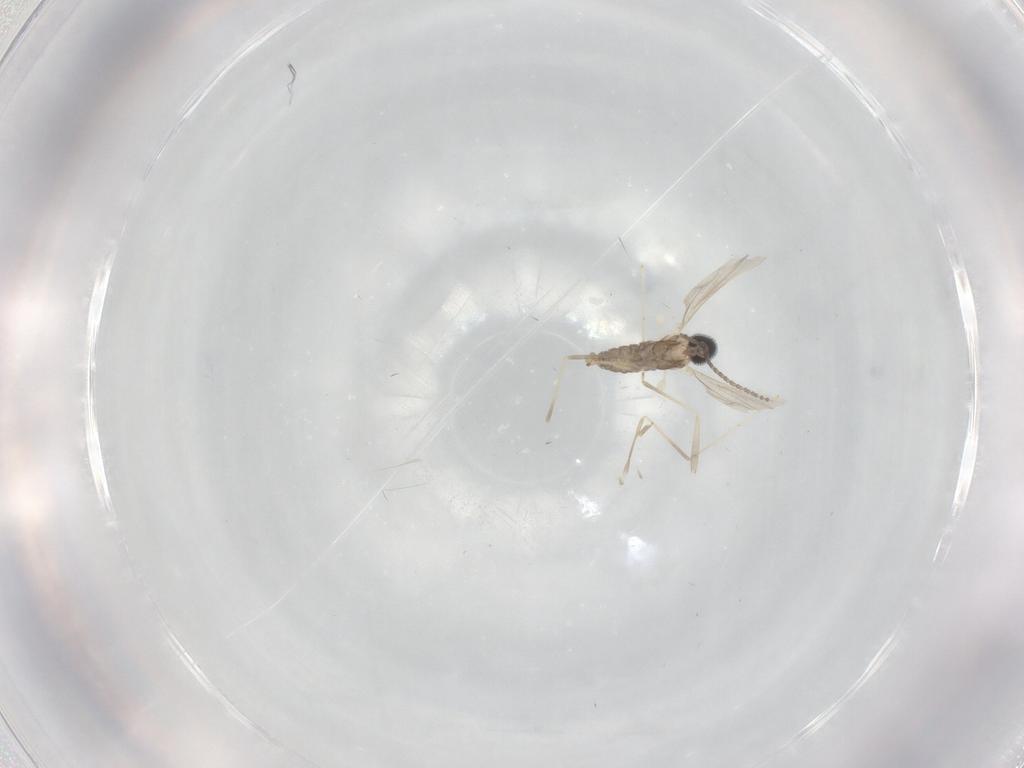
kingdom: Animalia
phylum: Arthropoda
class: Insecta
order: Diptera
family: Cecidomyiidae
